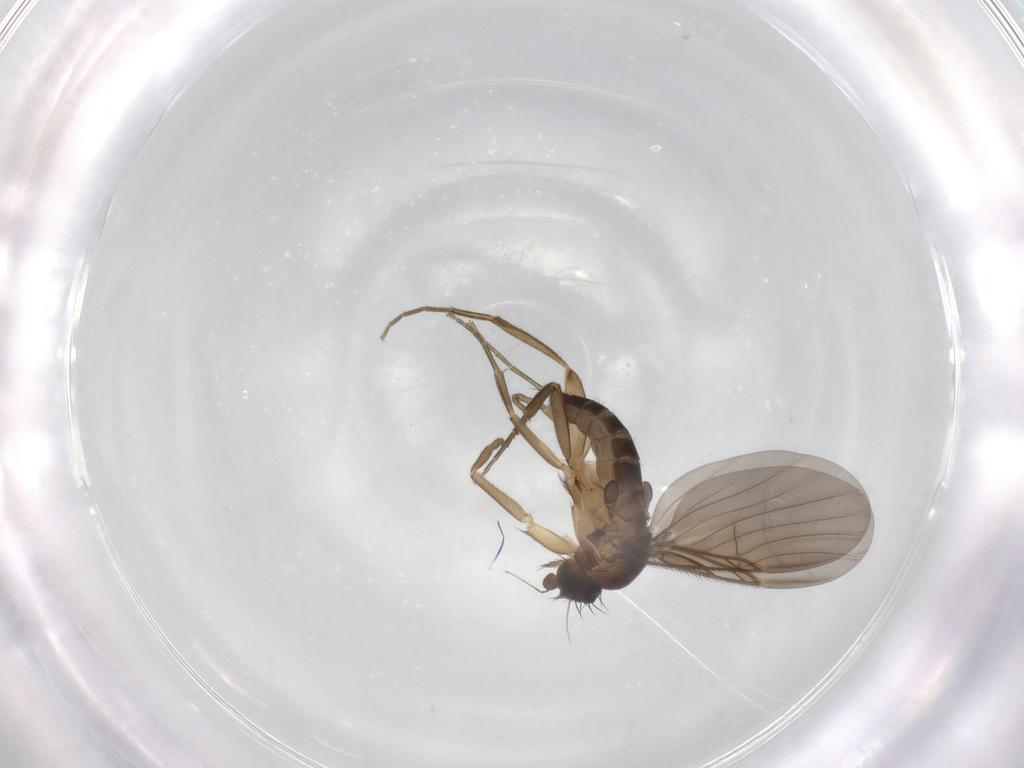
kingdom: Animalia
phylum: Arthropoda
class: Insecta
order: Diptera
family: Phoridae
